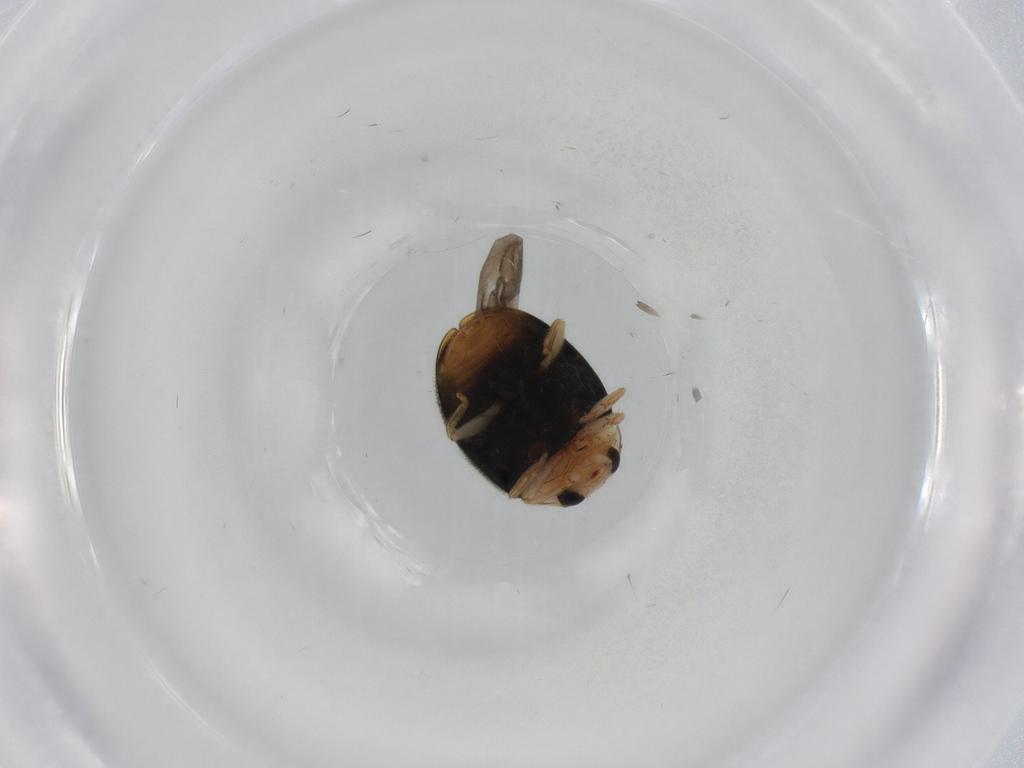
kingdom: Animalia
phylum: Arthropoda
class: Insecta
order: Coleoptera
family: Coccinellidae
